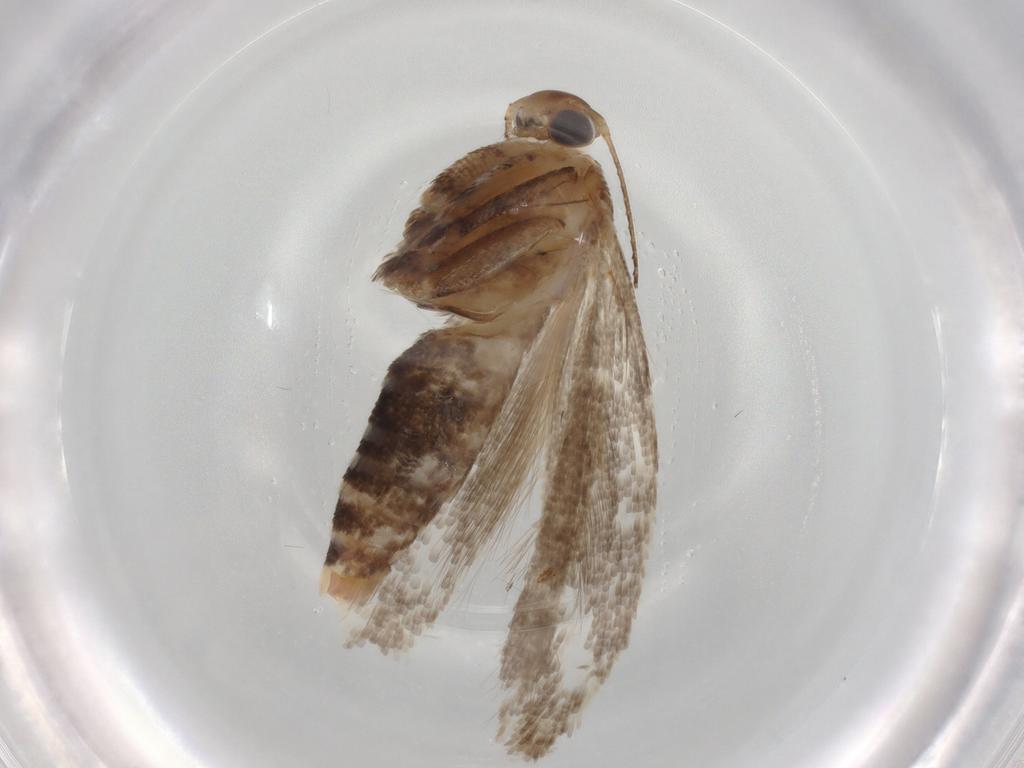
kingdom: Animalia
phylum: Arthropoda
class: Insecta
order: Lepidoptera
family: Gelechiidae
